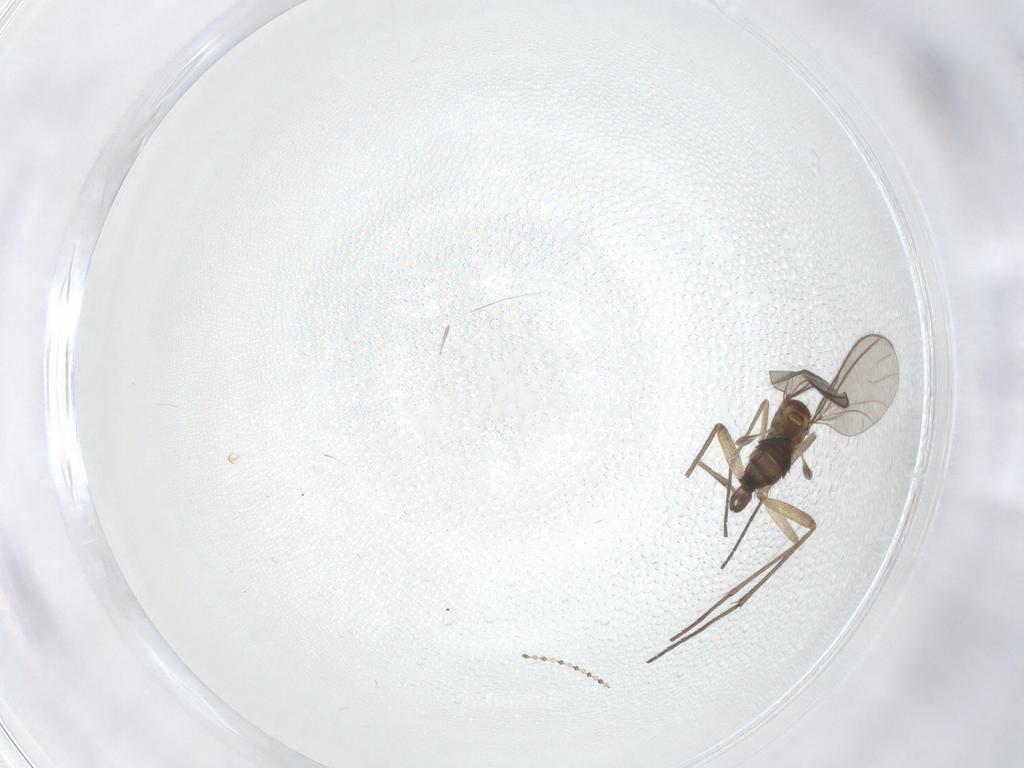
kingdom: Animalia
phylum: Arthropoda
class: Insecta
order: Diptera
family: Sciaridae
